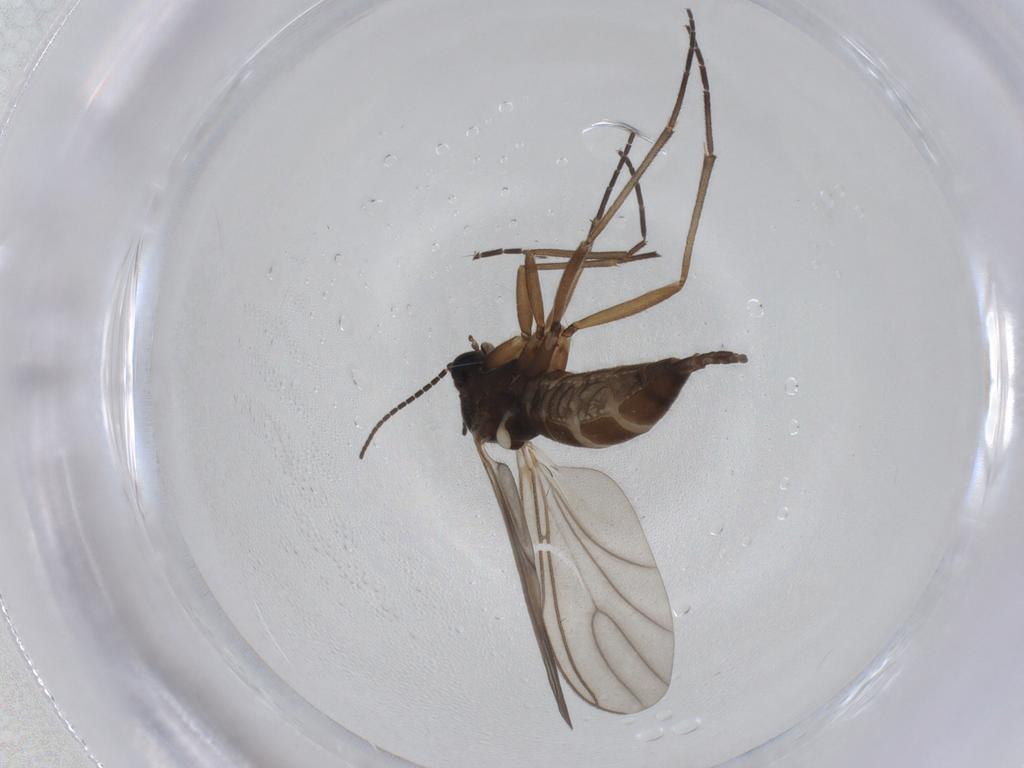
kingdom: Animalia
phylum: Arthropoda
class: Insecta
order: Diptera
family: Sciaridae
